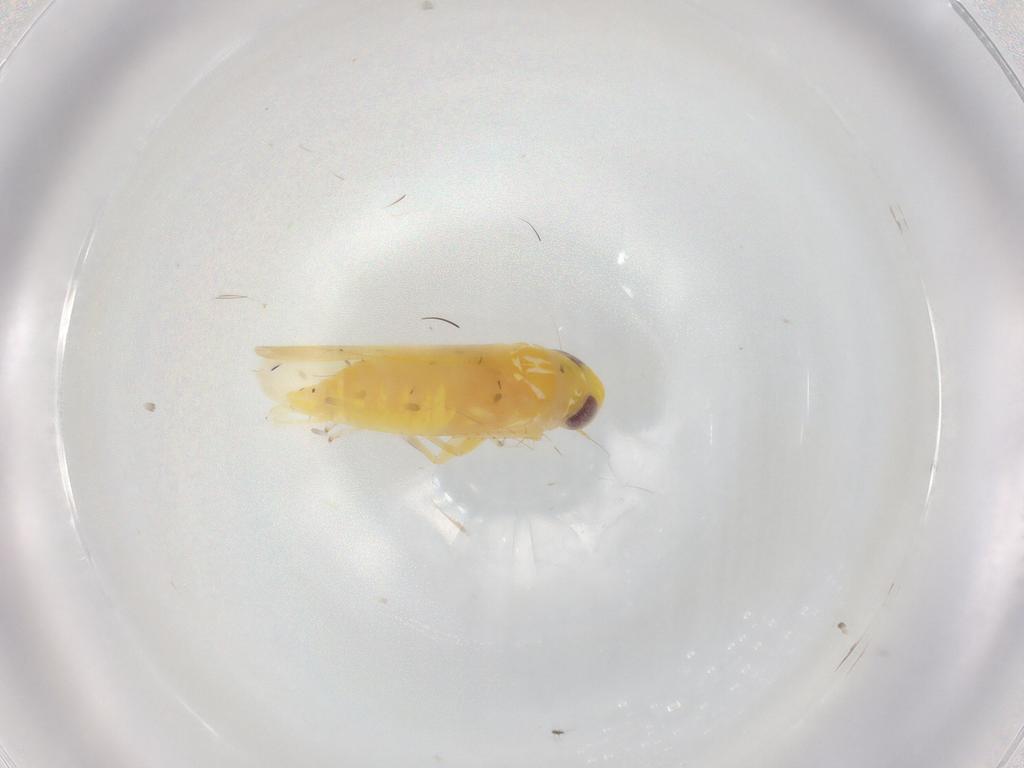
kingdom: Animalia
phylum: Arthropoda
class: Insecta
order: Hemiptera
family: Cicadellidae
